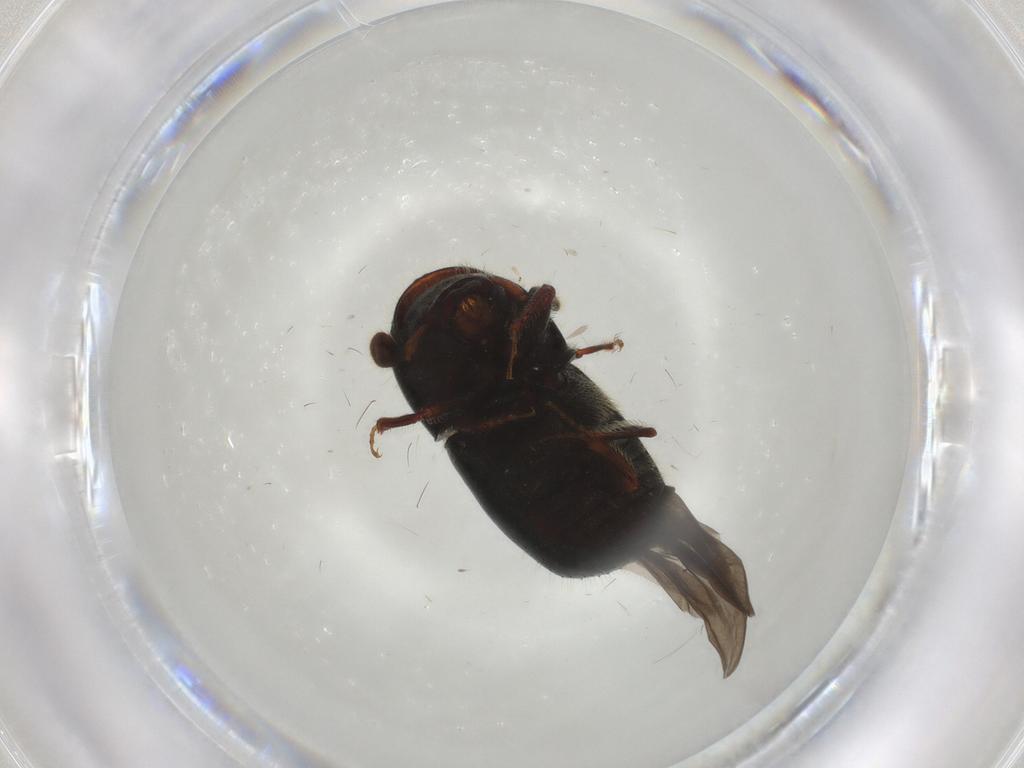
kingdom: Animalia
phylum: Arthropoda
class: Insecta
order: Coleoptera
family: Curculionidae
